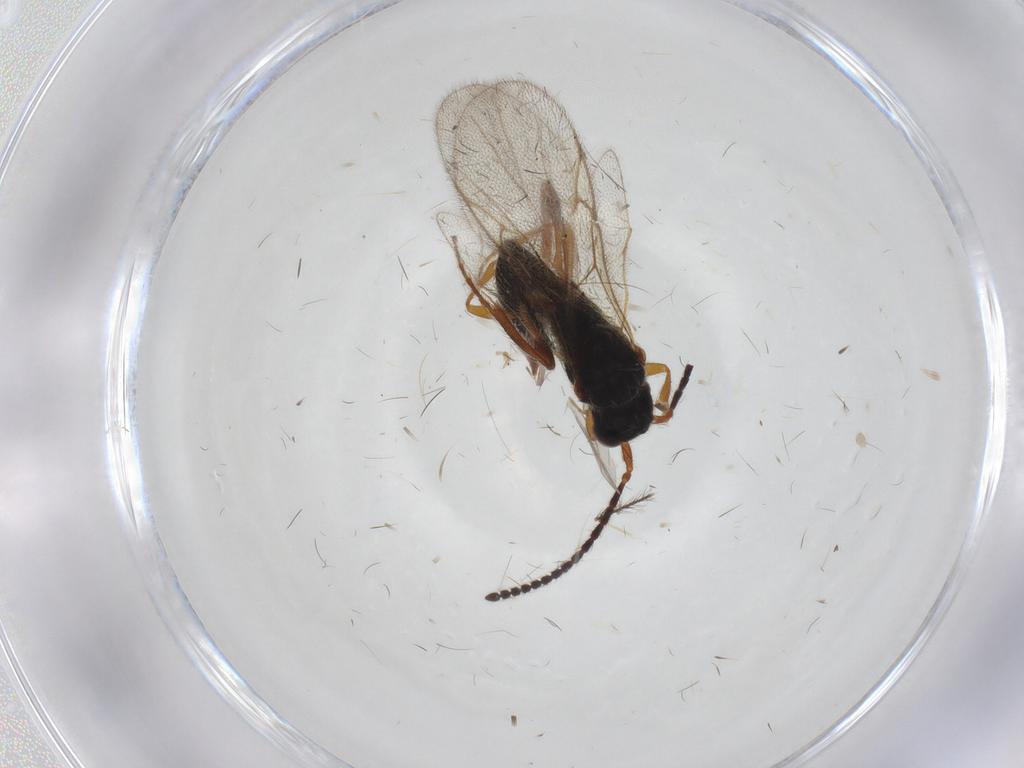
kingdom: Animalia
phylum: Arthropoda
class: Insecta
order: Hymenoptera
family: Diapriidae
